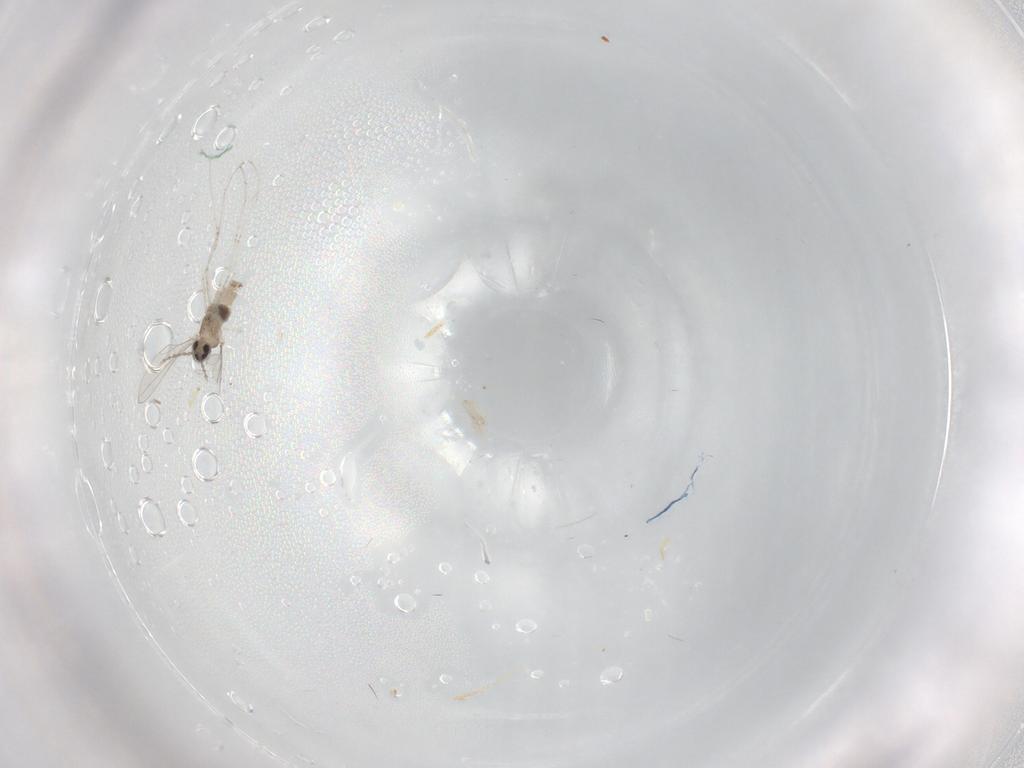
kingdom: Animalia
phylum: Arthropoda
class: Insecta
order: Diptera
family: Cecidomyiidae
